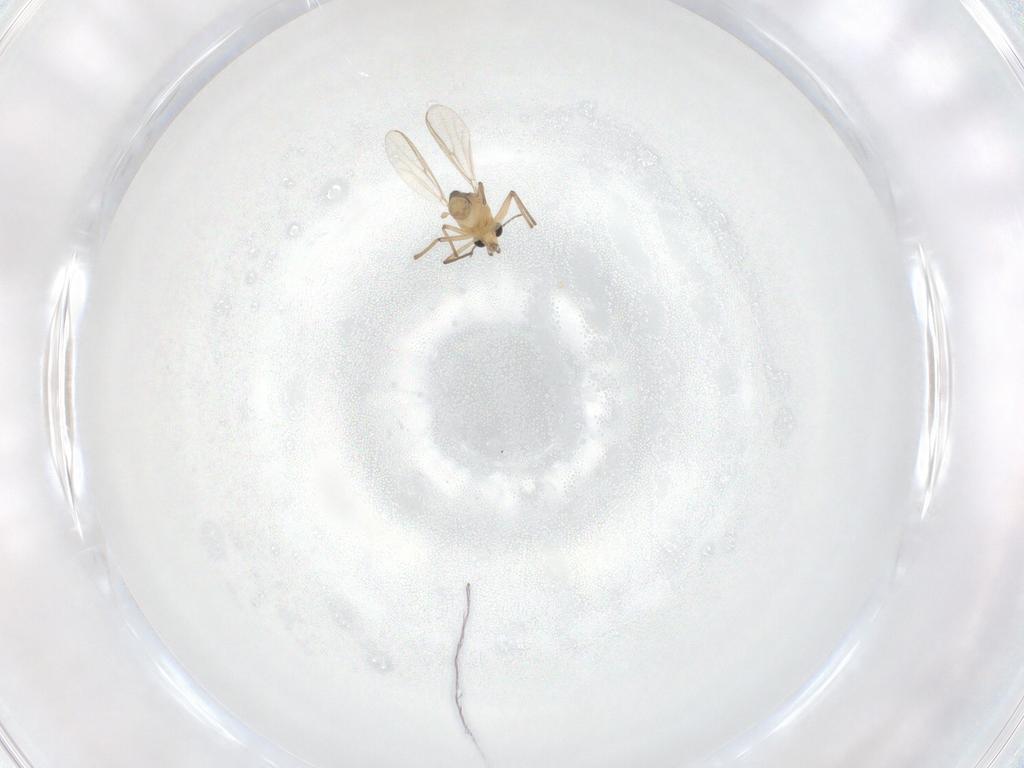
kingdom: Animalia
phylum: Arthropoda
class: Insecta
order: Diptera
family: Chironomidae
